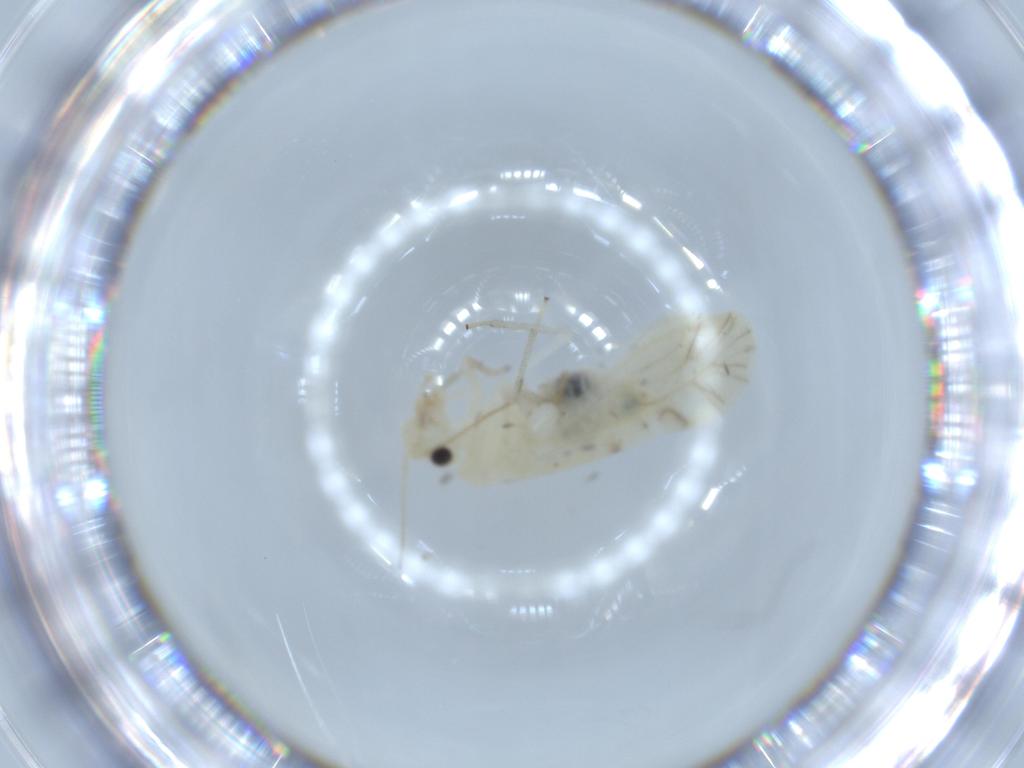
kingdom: Animalia
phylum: Arthropoda
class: Insecta
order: Psocodea
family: Caeciliusidae
